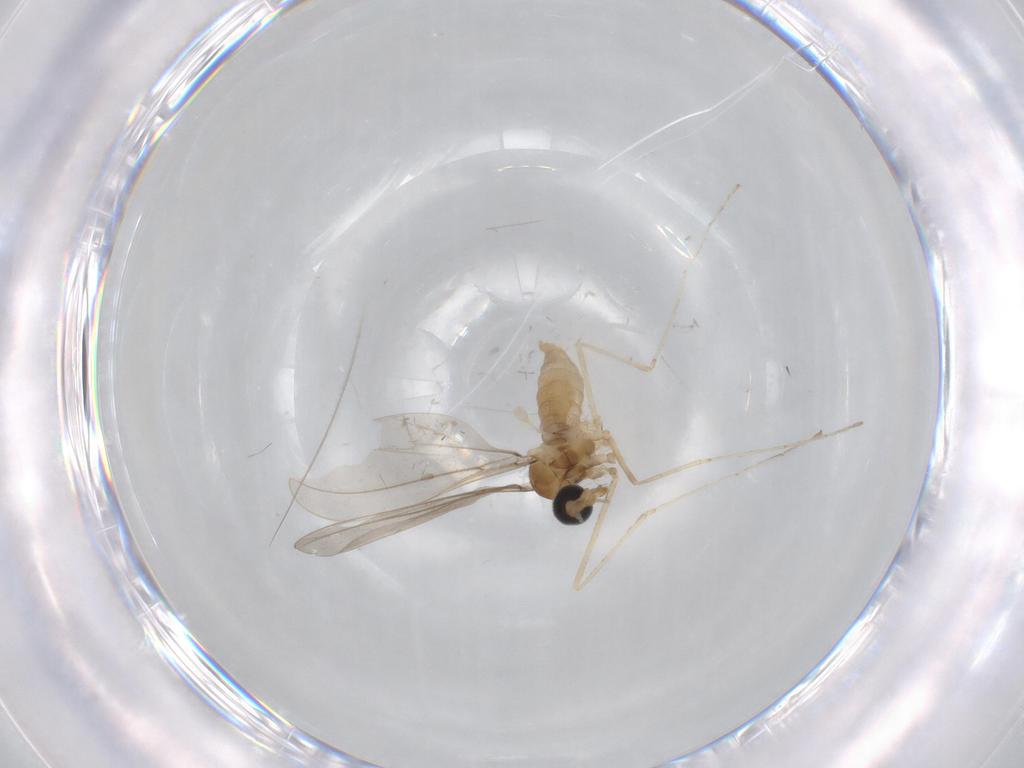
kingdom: Animalia
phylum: Arthropoda
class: Insecta
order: Diptera
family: Cecidomyiidae
